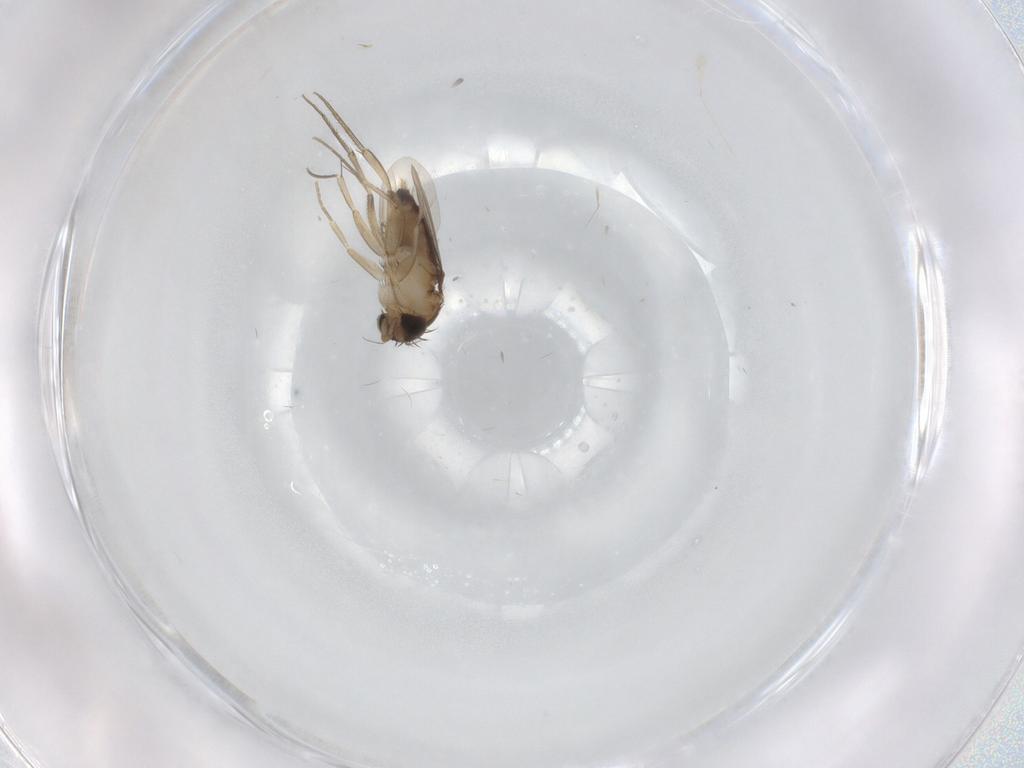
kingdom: Animalia
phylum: Arthropoda
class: Insecta
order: Diptera
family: Phoridae
